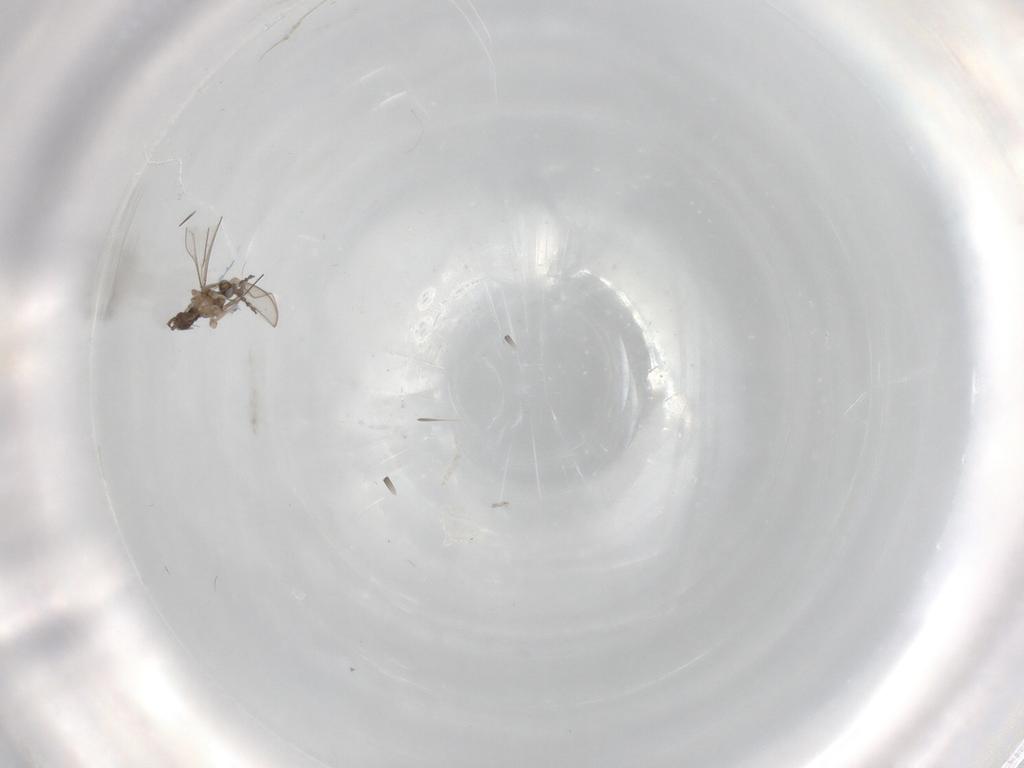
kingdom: Animalia
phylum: Arthropoda
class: Insecta
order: Diptera
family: Cecidomyiidae
